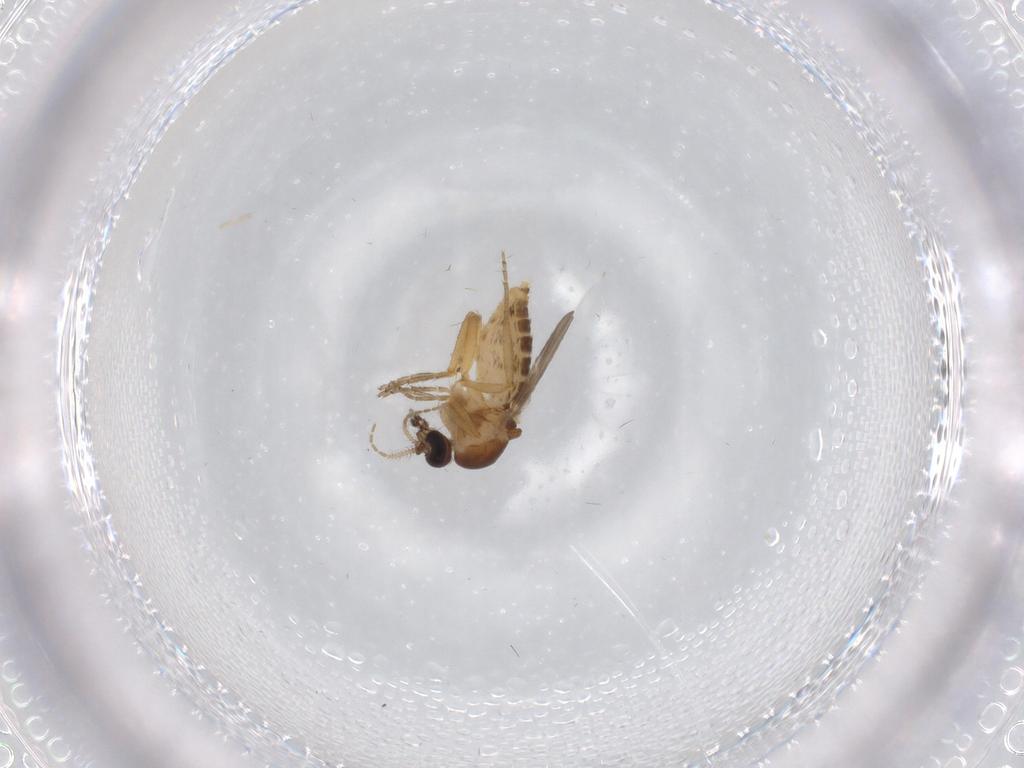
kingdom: Animalia
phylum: Arthropoda
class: Insecta
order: Diptera
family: Ceratopogonidae
